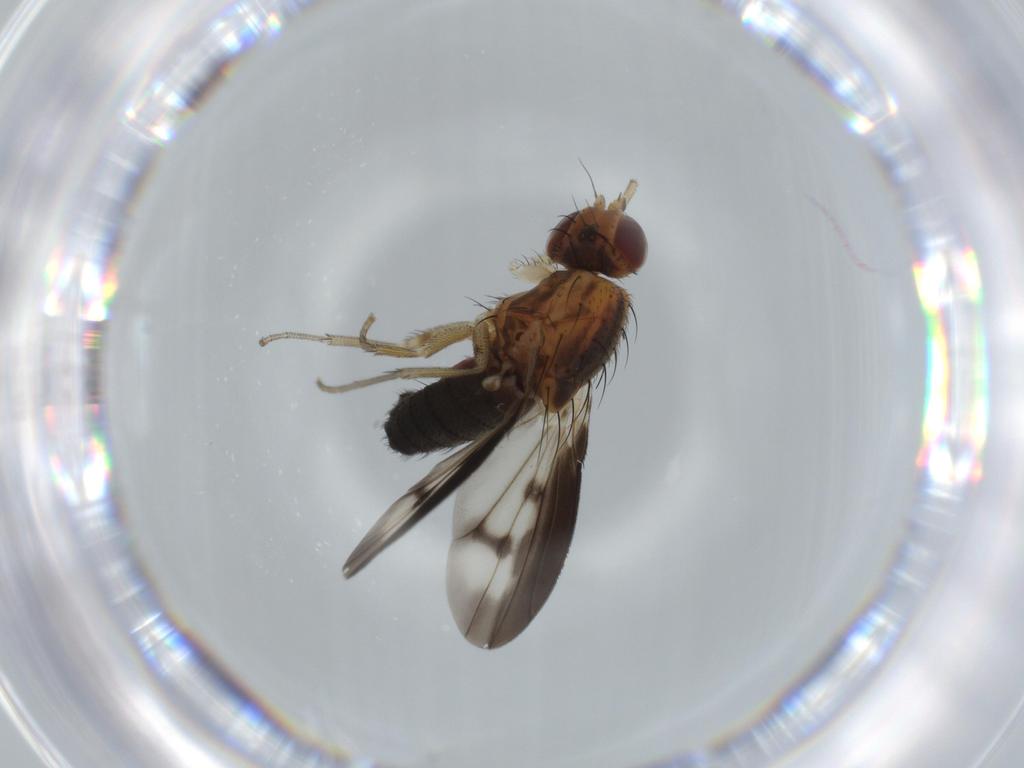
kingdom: Animalia
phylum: Arthropoda
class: Insecta
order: Diptera
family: Heleomyzidae
